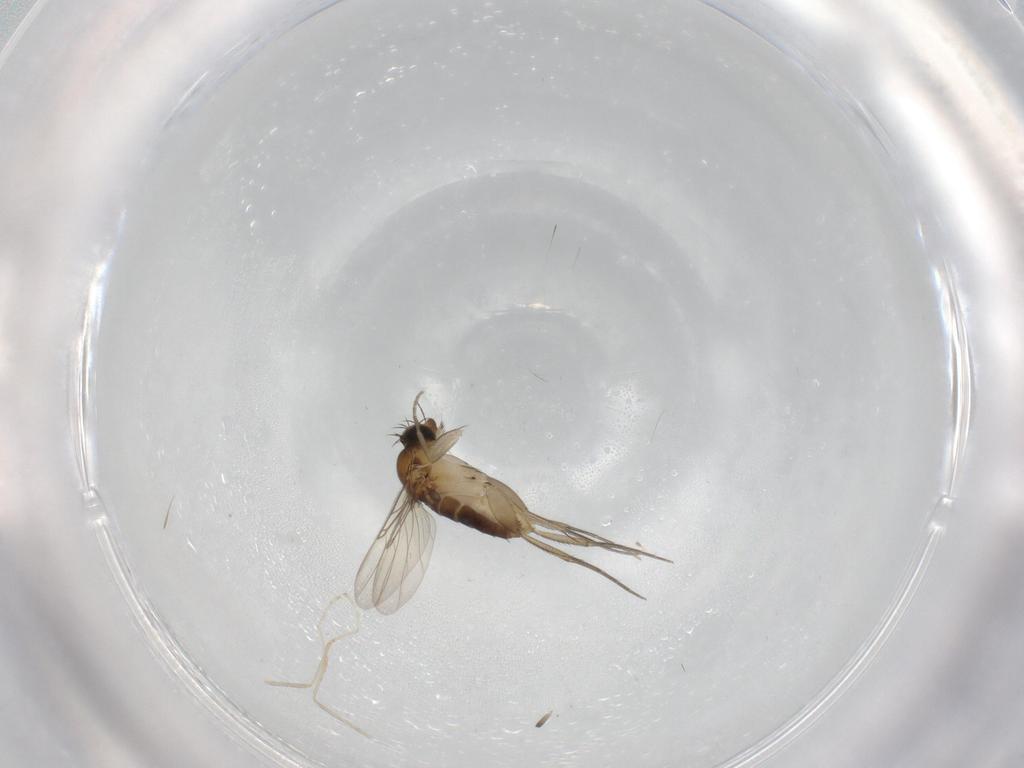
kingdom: Animalia
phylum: Arthropoda
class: Insecta
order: Diptera
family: Phoridae
